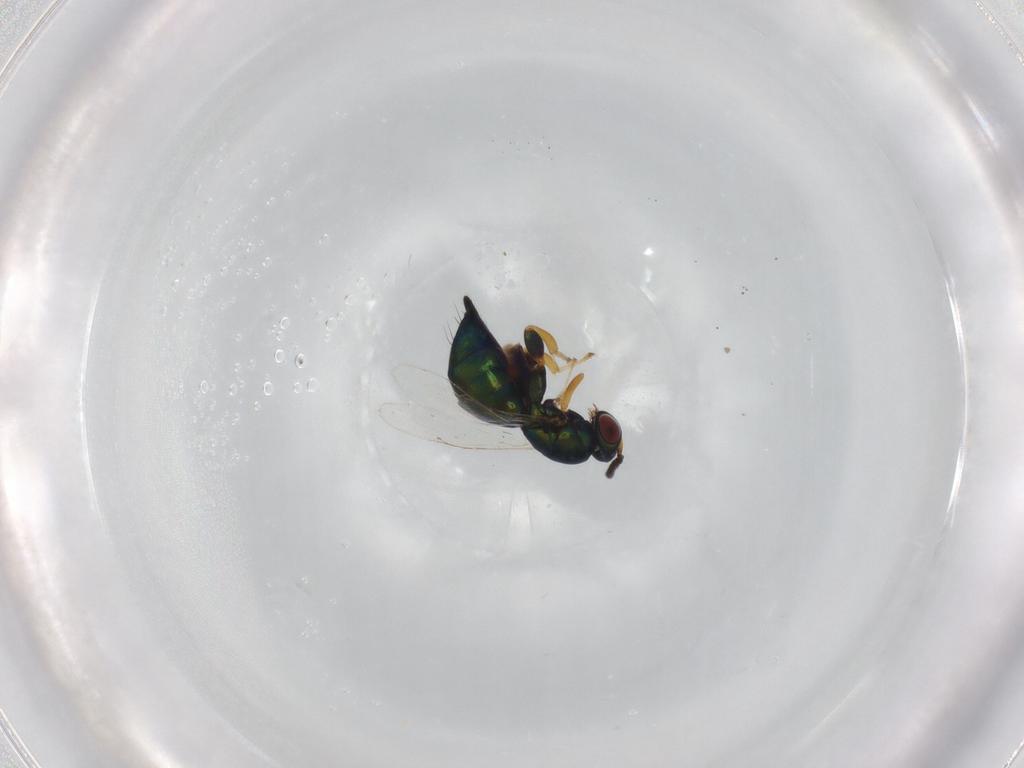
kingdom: Animalia
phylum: Arthropoda
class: Insecta
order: Hymenoptera
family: Pteromalidae
